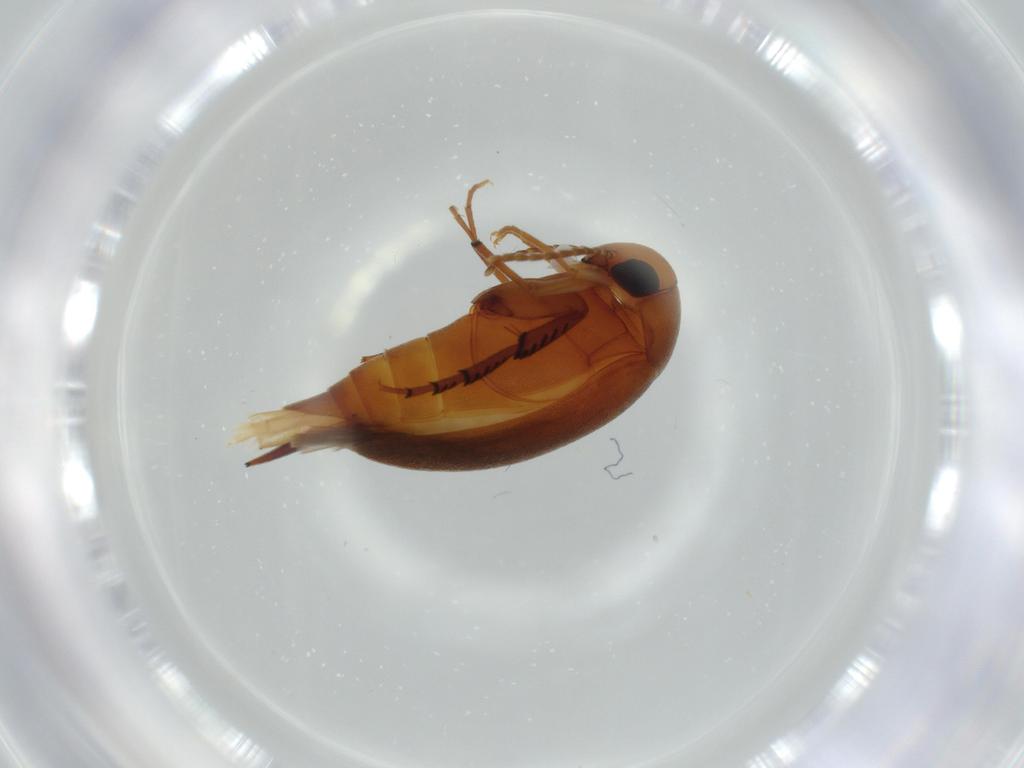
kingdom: Animalia
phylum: Arthropoda
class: Insecta
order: Coleoptera
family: Mordellidae
